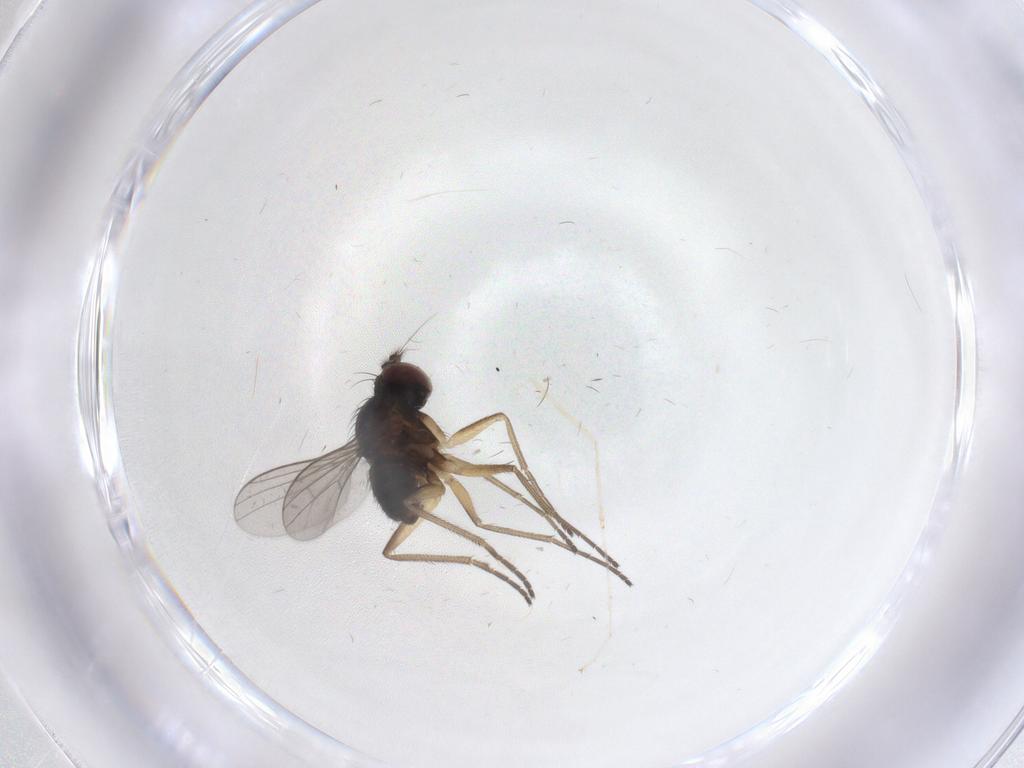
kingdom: Animalia
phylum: Arthropoda
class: Insecta
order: Diptera
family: Dolichopodidae
